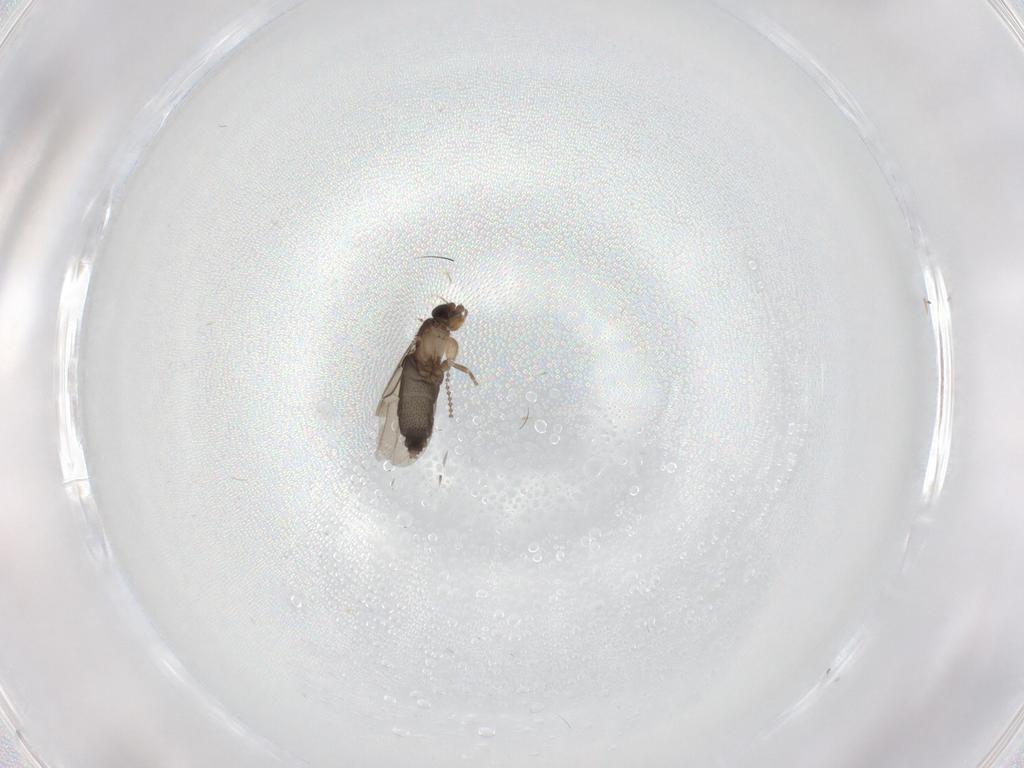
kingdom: Animalia
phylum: Arthropoda
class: Insecta
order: Diptera
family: Phoridae
